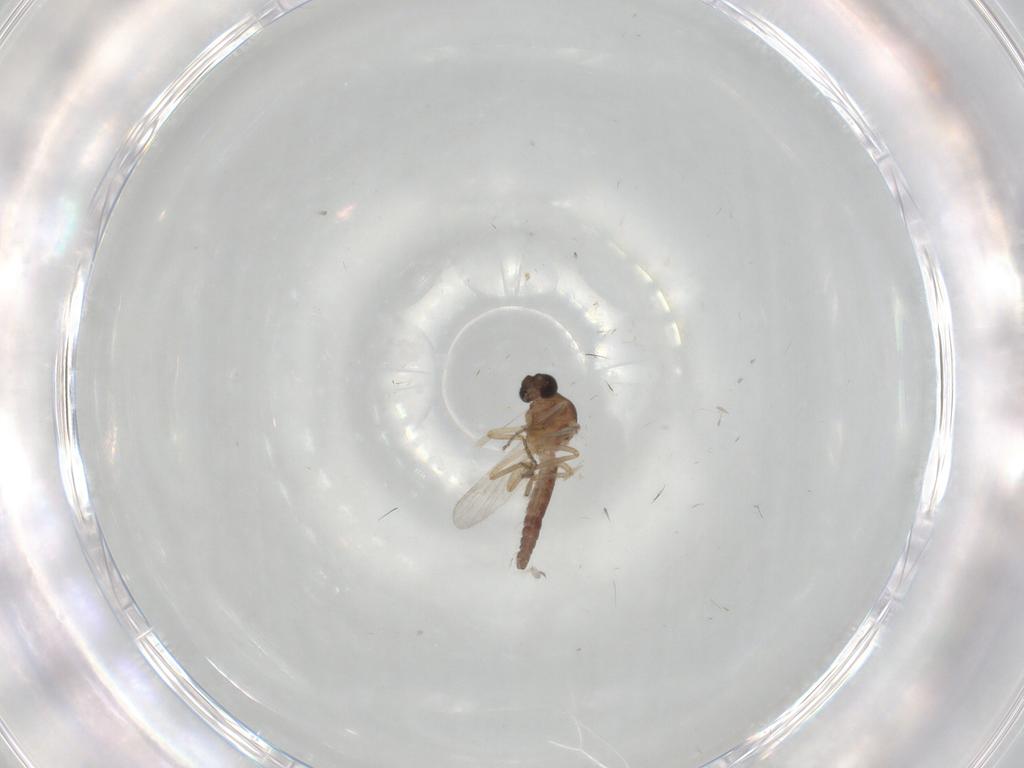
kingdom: Animalia
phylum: Arthropoda
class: Insecta
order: Diptera
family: Ceratopogonidae
